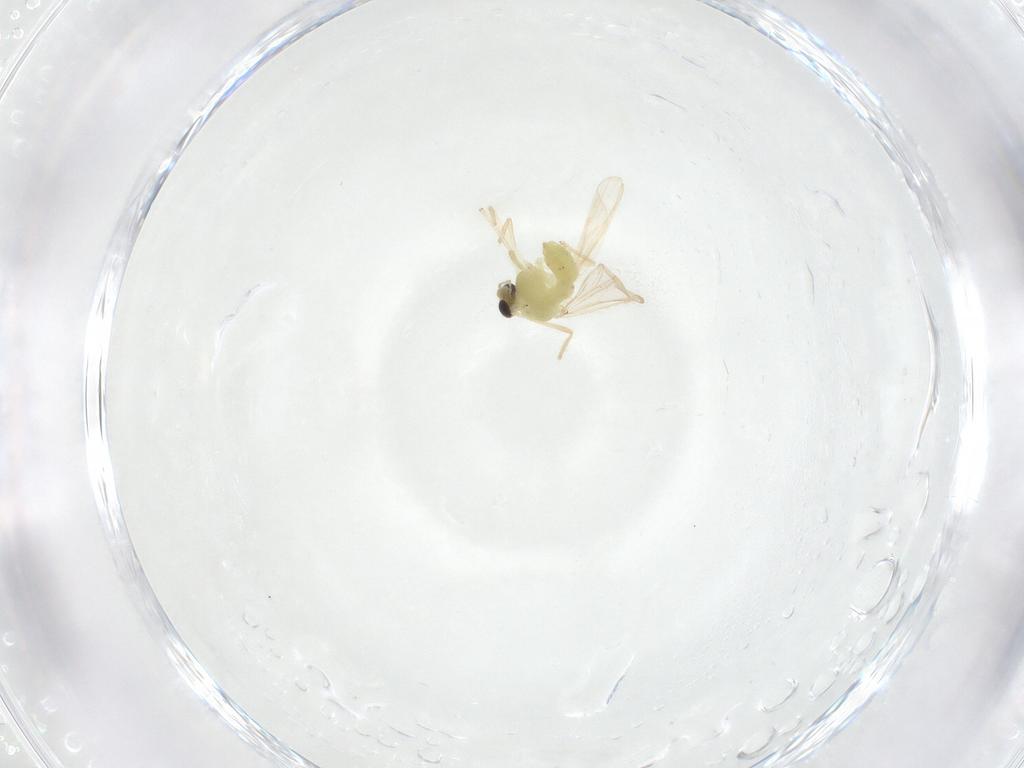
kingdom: Animalia
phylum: Arthropoda
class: Insecta
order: Diptera
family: Chironomidae
